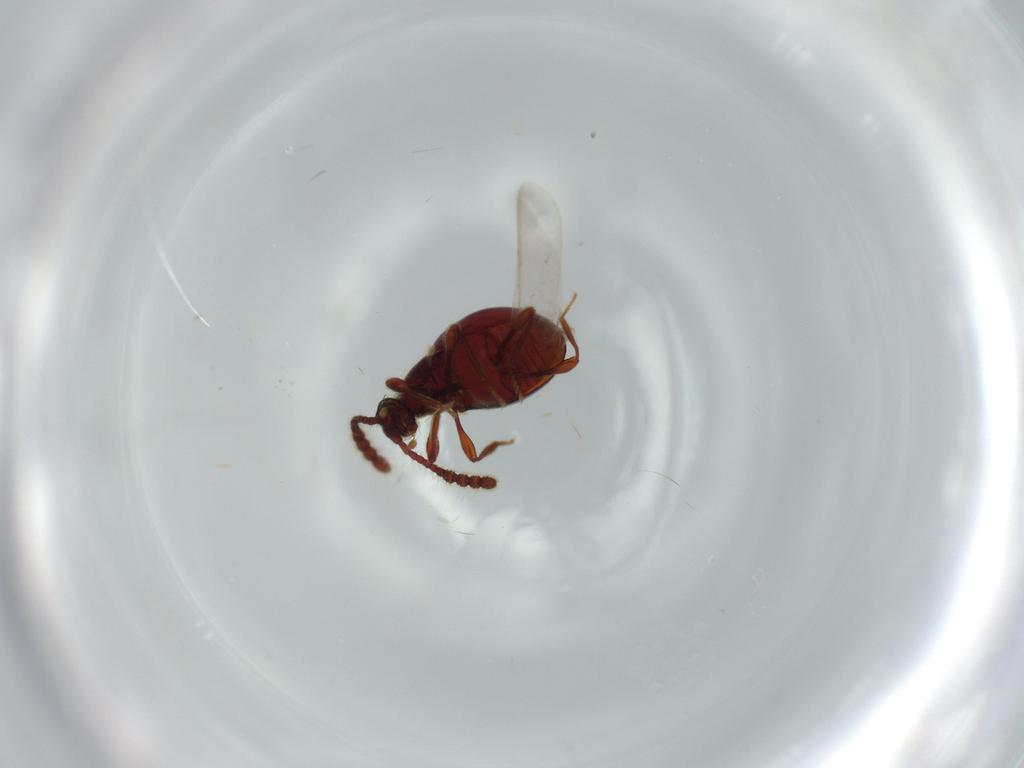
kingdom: Animalia
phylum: Arthropoda
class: Insecta
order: Coleoptera
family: Staphylinidae
